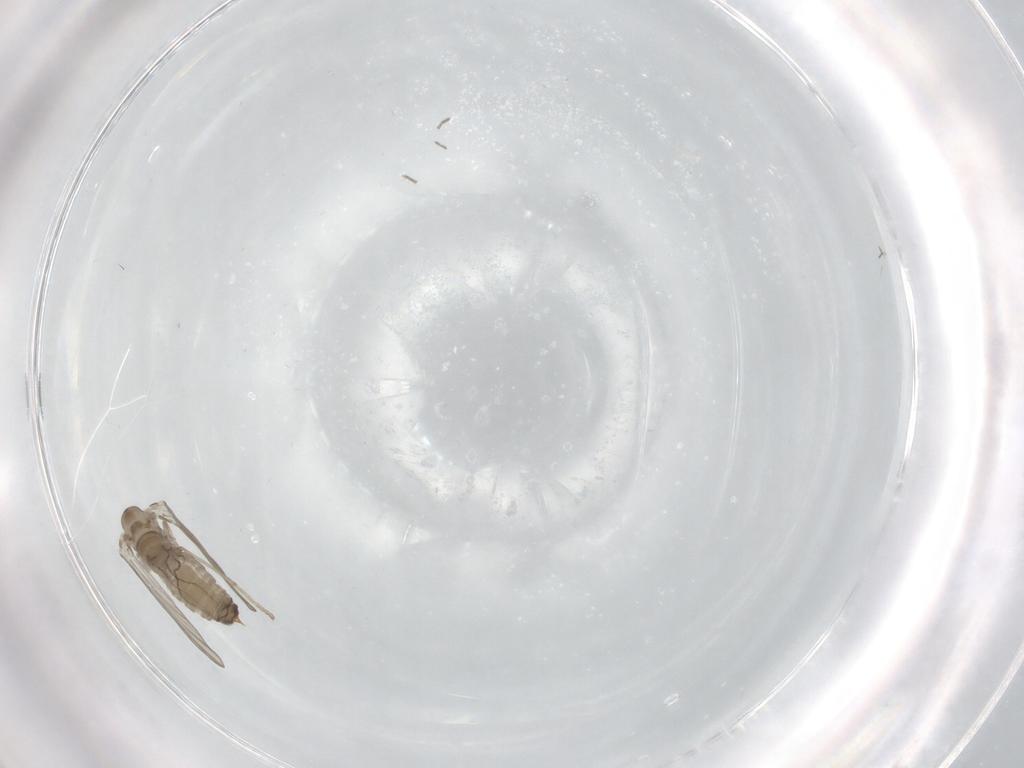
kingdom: Animalia
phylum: Arthropoda
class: Insecta
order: Diptera
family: Psychodidae
